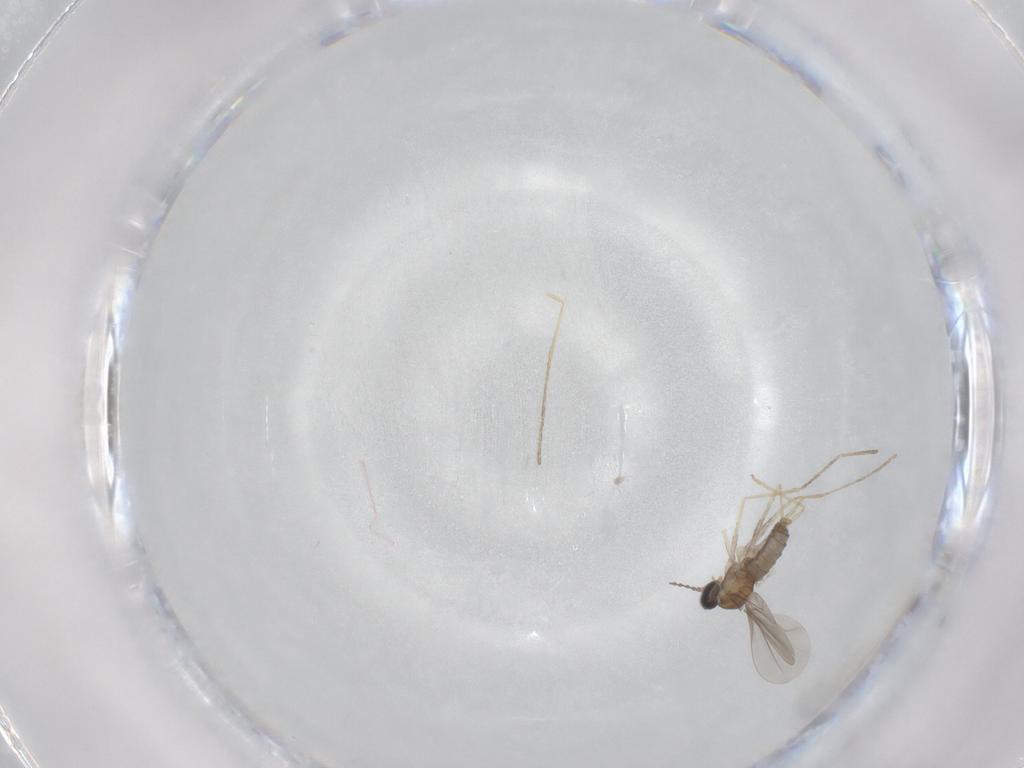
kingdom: Animalia
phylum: Arthropoda
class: Insecta
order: Diptera
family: Cecidomyiidae
